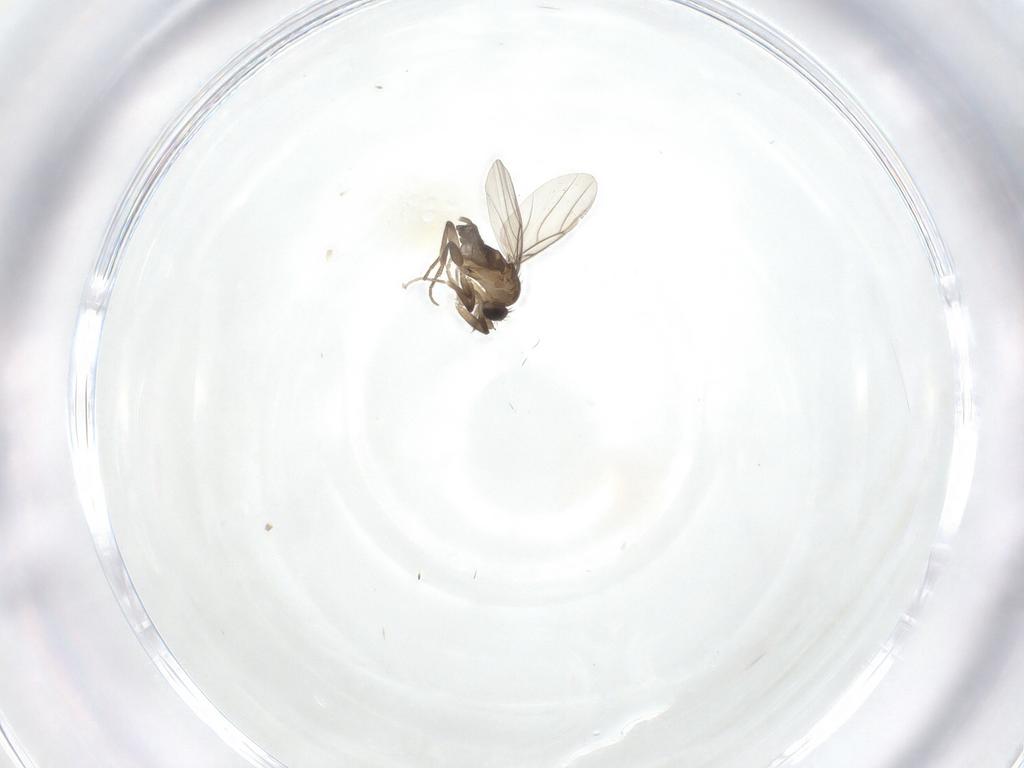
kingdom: Animalia
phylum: Arthropoda
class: Insecta
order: Diptera
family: Phoridae
